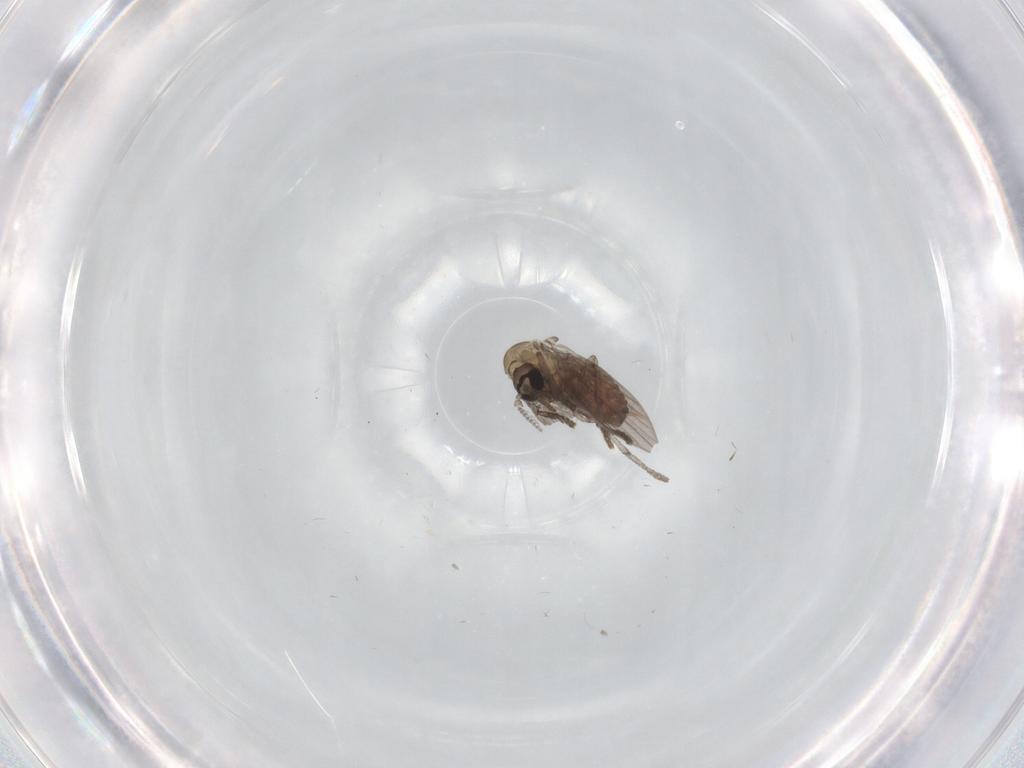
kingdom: Animalia
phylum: Arthropoda
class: Insecta
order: Diptera
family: Psychodidae
